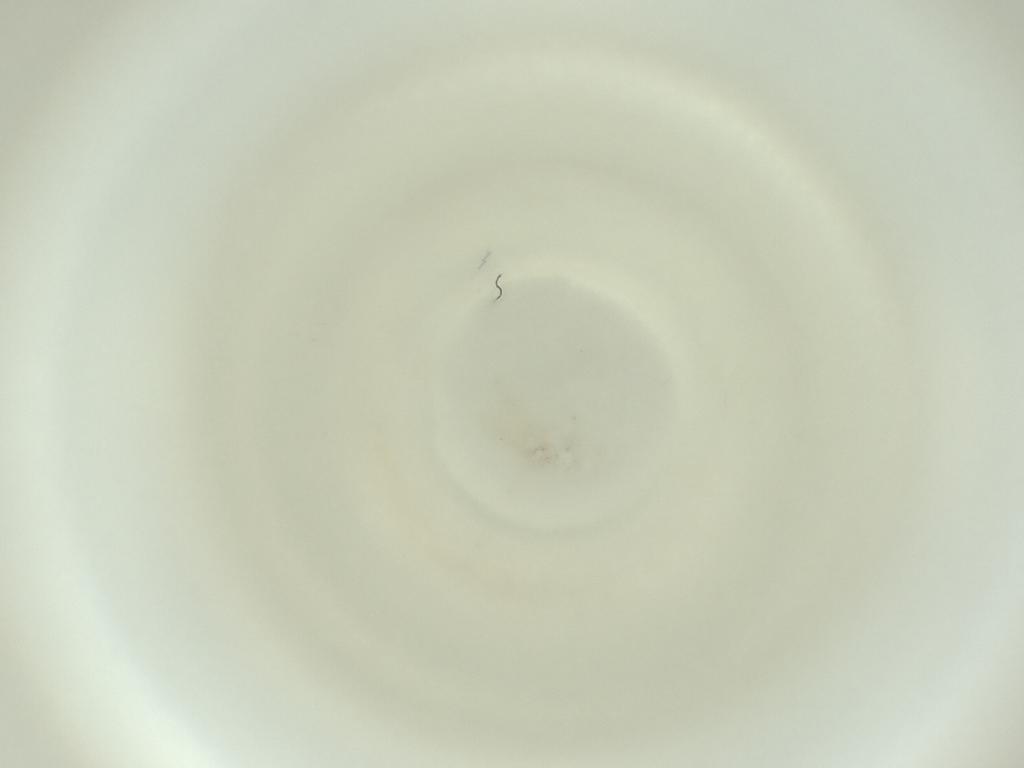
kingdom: Animalia
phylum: Arthropoda
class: Insecta
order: Diptera
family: Cecidomyiidae
